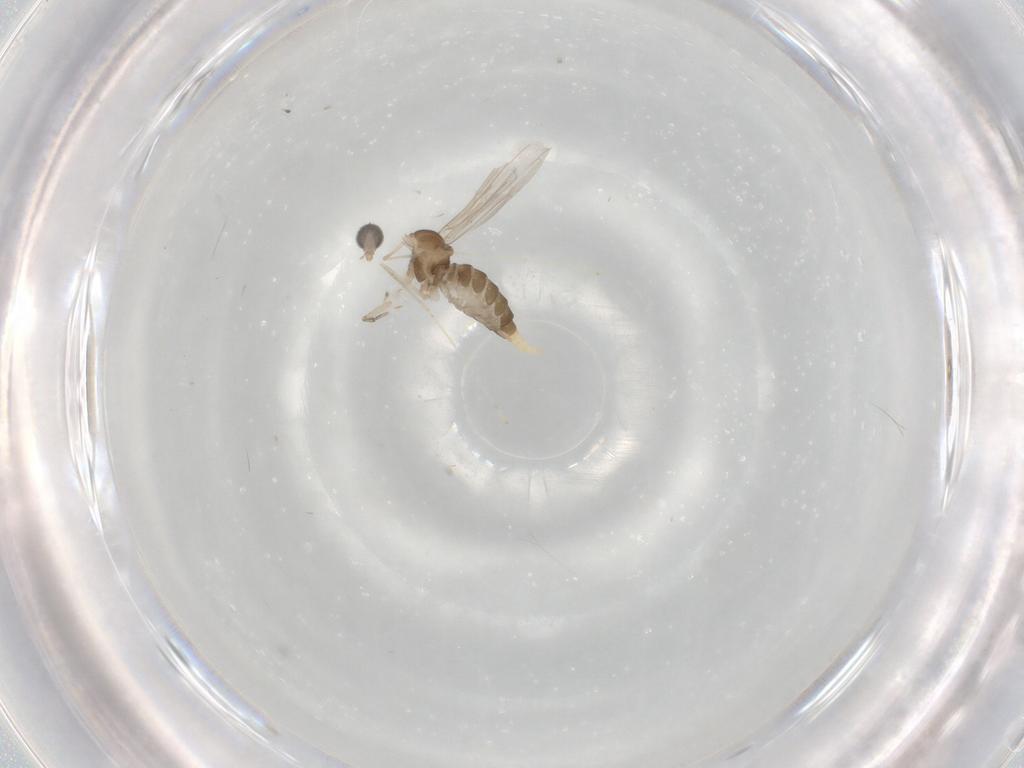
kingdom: Animalia
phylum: Arthropoda
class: Insecta
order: Diptera
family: Cecidomyiidae
